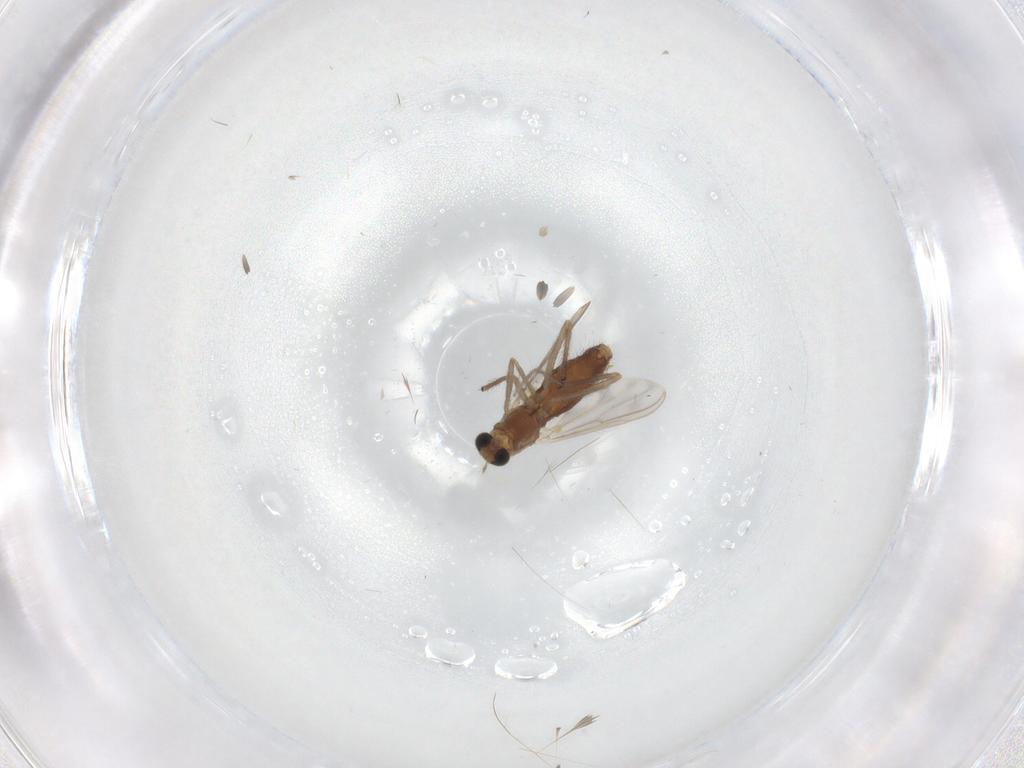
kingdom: Animalia
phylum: Arthropoda
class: Insecta
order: Diptera
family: Chironomidae
